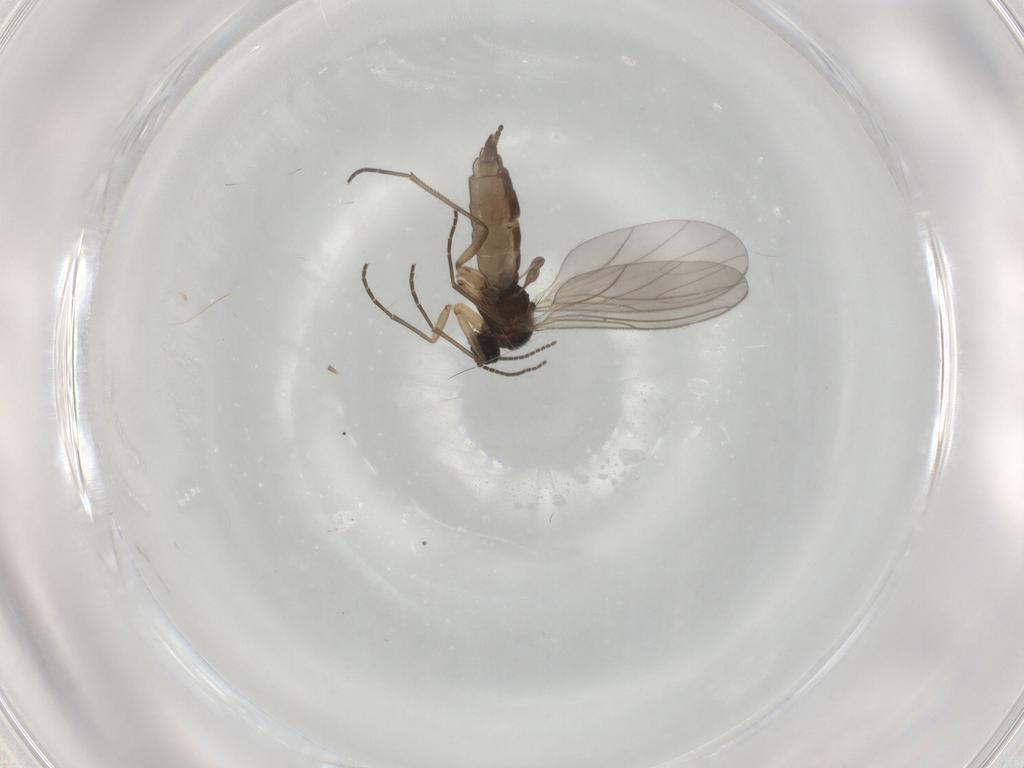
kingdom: Animalia
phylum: Arthropoda
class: Insecta
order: Diptera
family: Sciaridae
